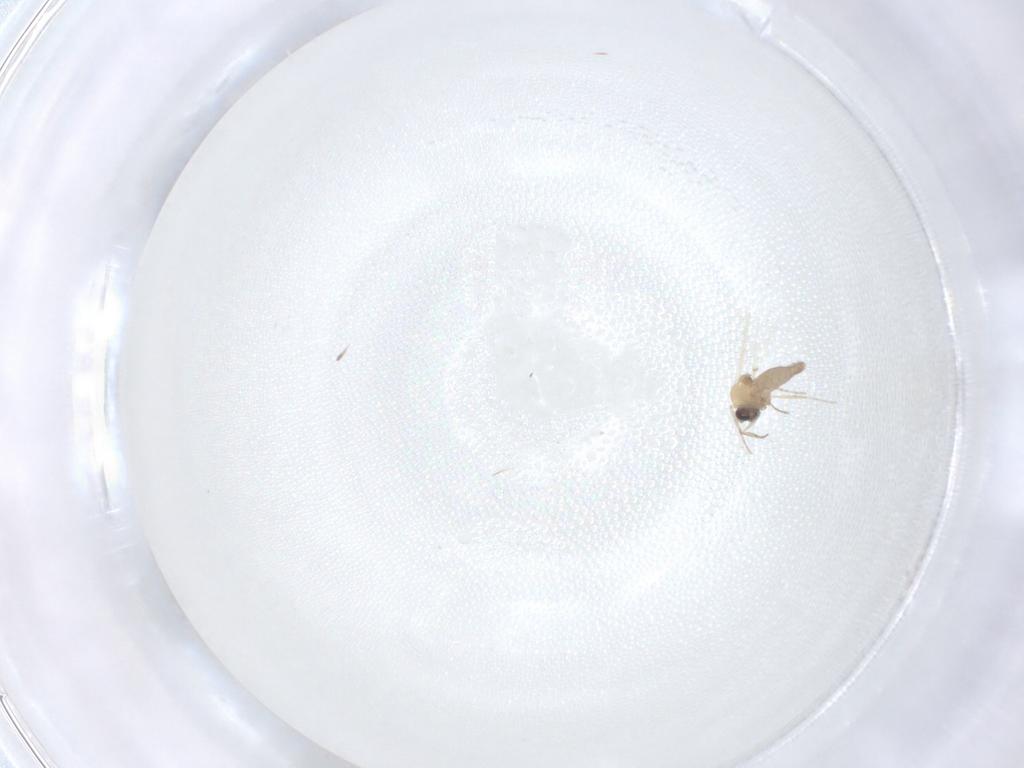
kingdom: Animalia
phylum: Arthropoda
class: Insecta
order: Diptera
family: Ceratopogonidae
